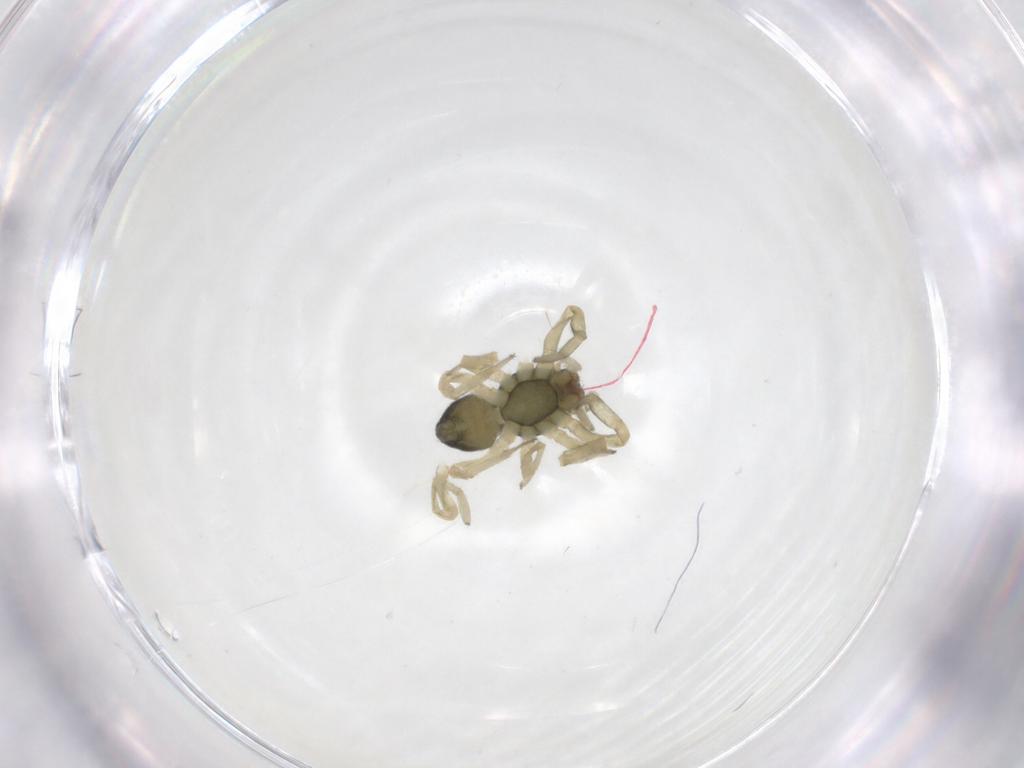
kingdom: Animalia
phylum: Arthropoda
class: Arachnida
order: Araneae
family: Trachelidae
